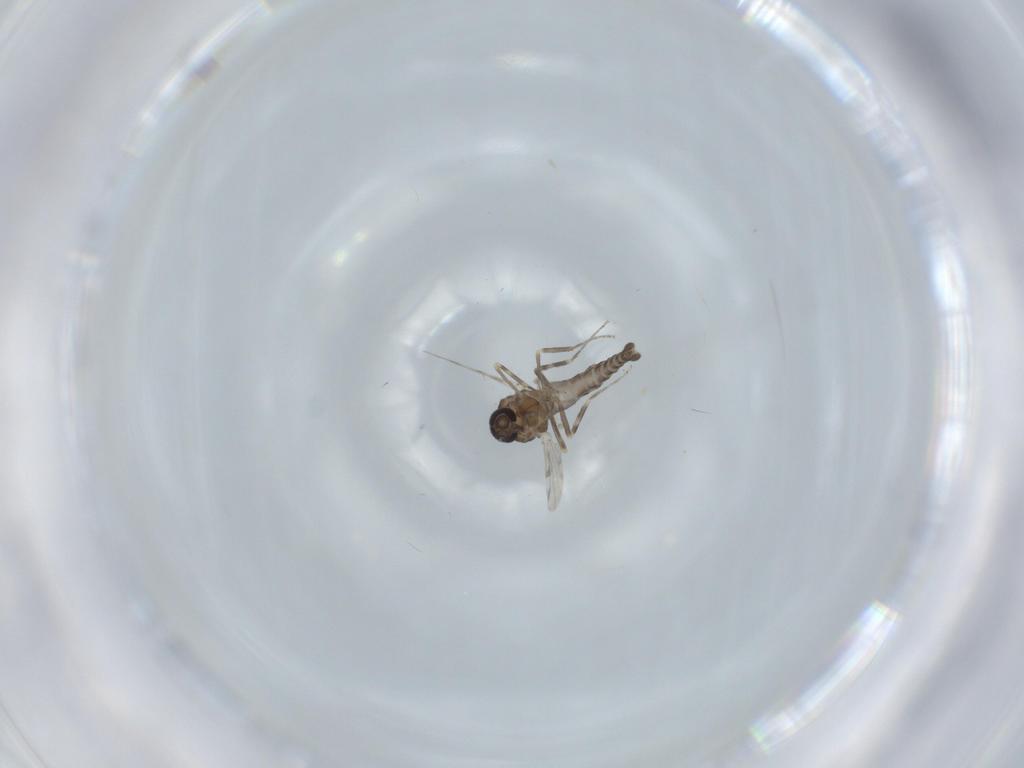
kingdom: Animalia
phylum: Arthropoda
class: Insecta
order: Diptera
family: Ceratopogonidae
